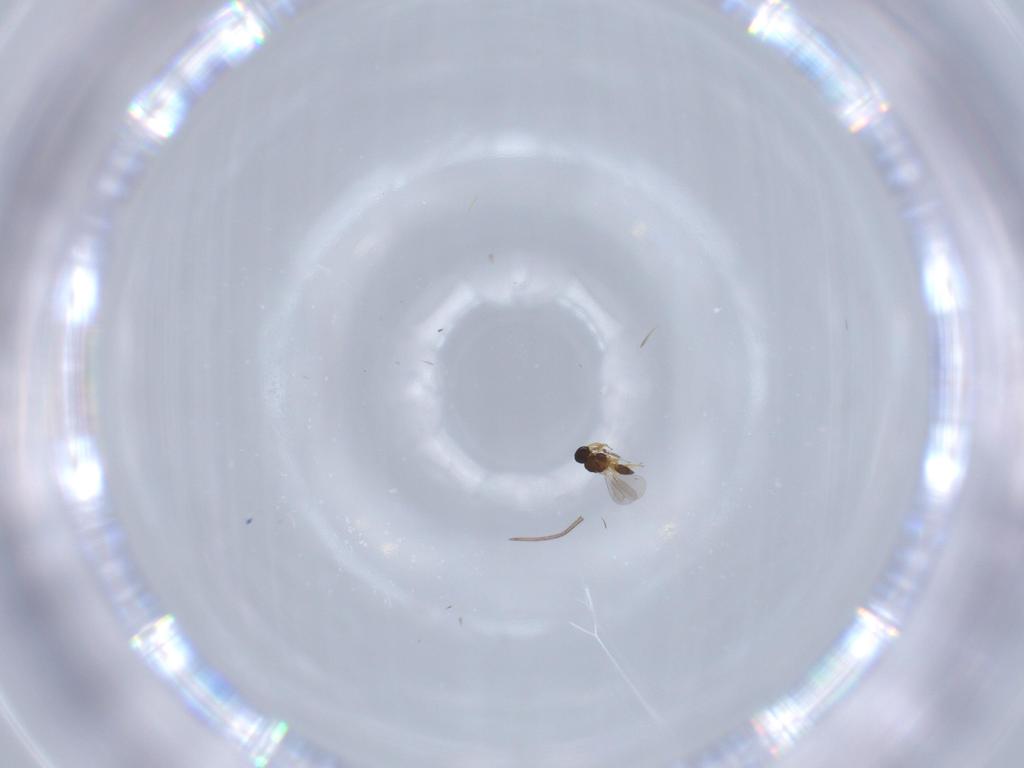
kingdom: Animalia
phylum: Arthropoda
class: Insecta
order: Hymenoptera
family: Platygastridae
